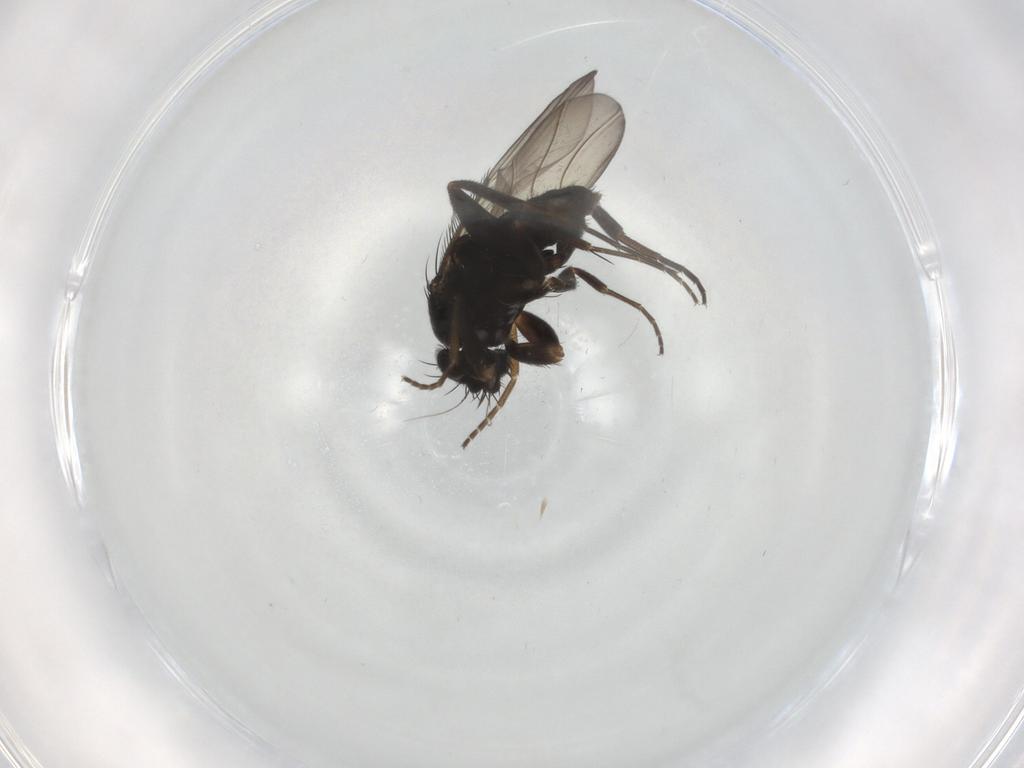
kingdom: Animalia
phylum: Arthropoda
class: Insecta
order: Diptera
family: Phoridae
